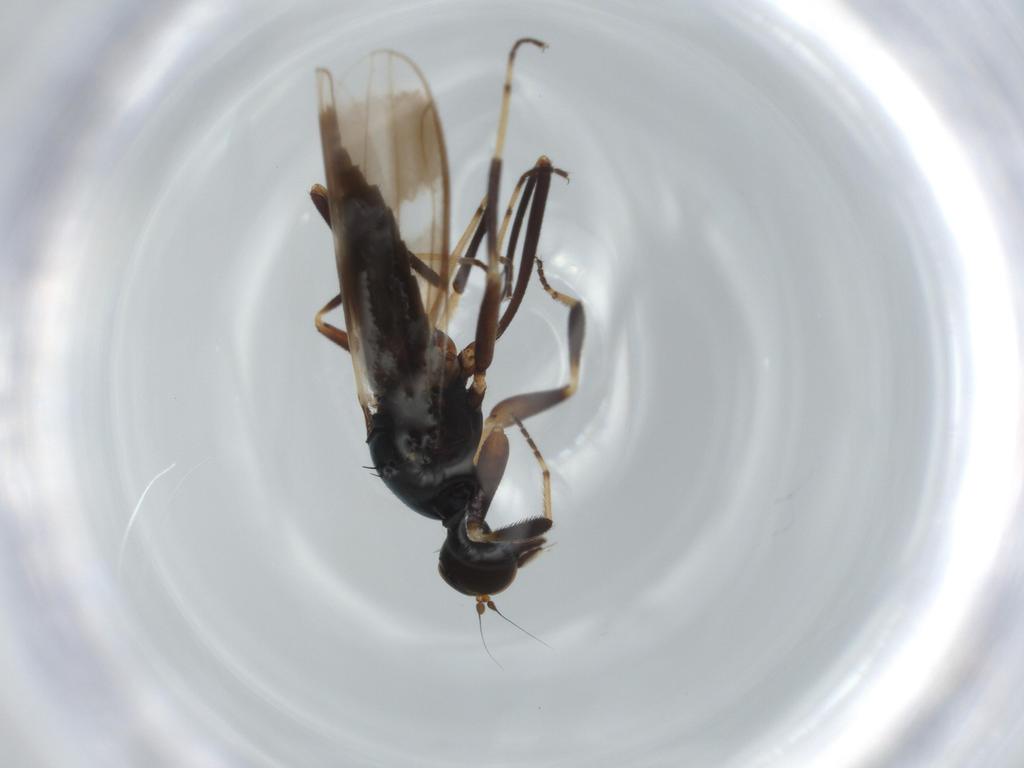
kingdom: Animalia
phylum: Arthropoda
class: Insecta
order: Diptera
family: Hybotidae
